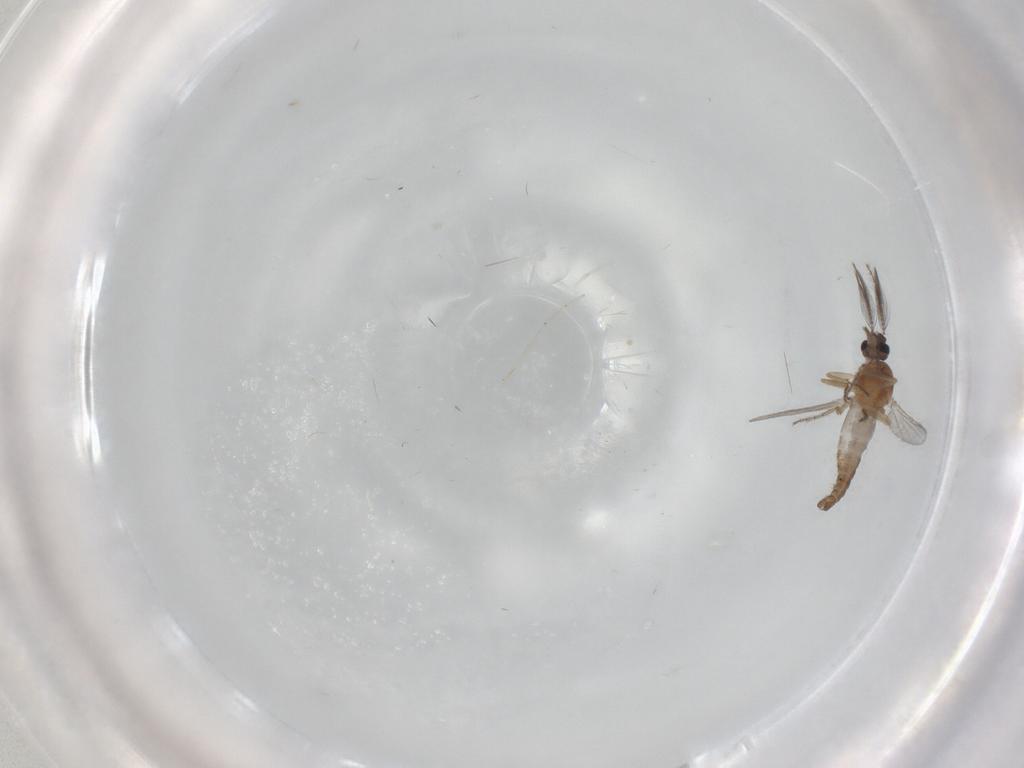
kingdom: Animalia
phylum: Arthropoda
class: Insecta
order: Diptera
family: Ceratopogonidae
